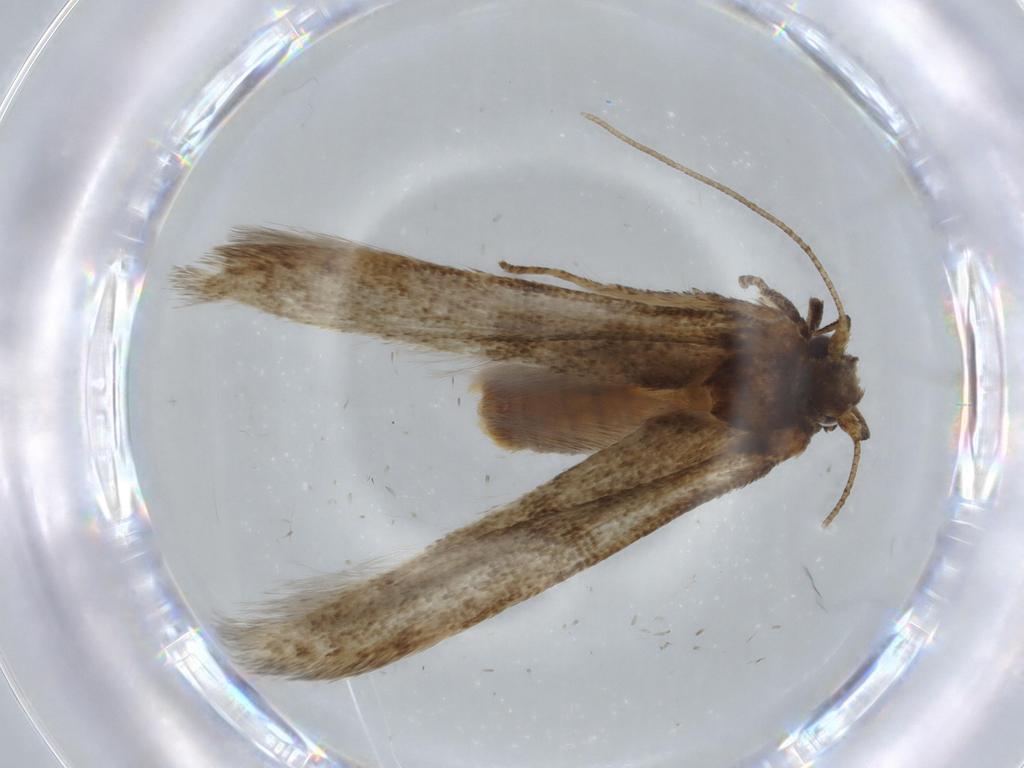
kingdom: Animalia
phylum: Arthropoda
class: Insecta
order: Lepidoptera
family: Blastobasidae
